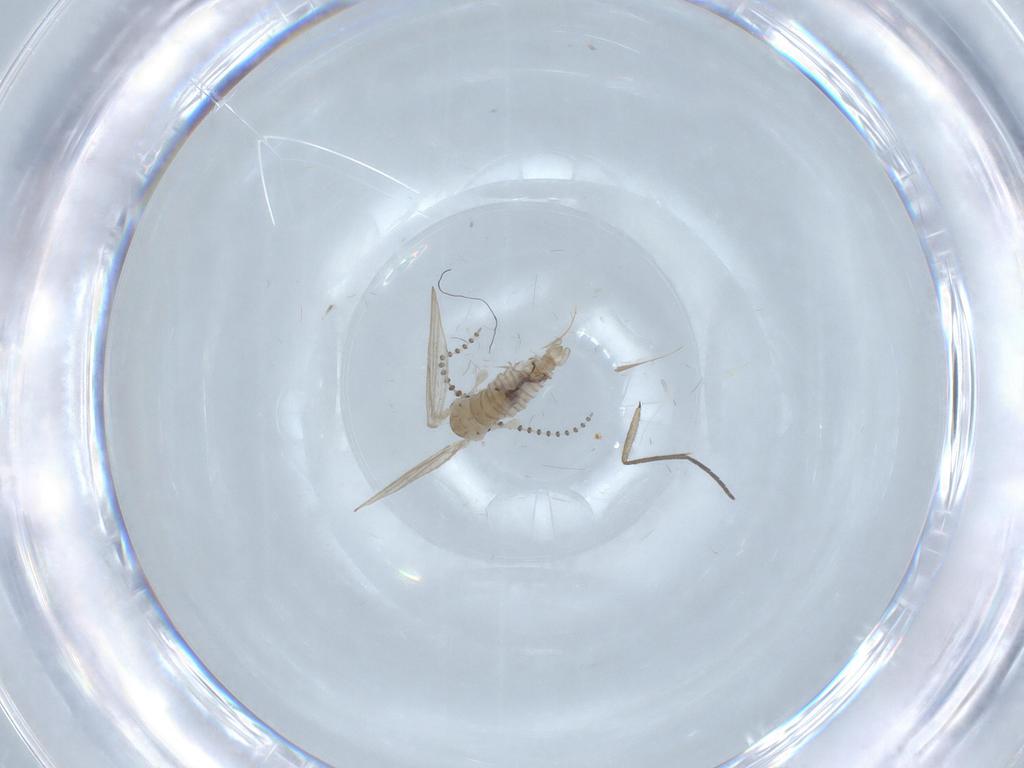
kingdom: Animalia
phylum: Arthropoda
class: Insecta
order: Diptera
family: Sciaridae
